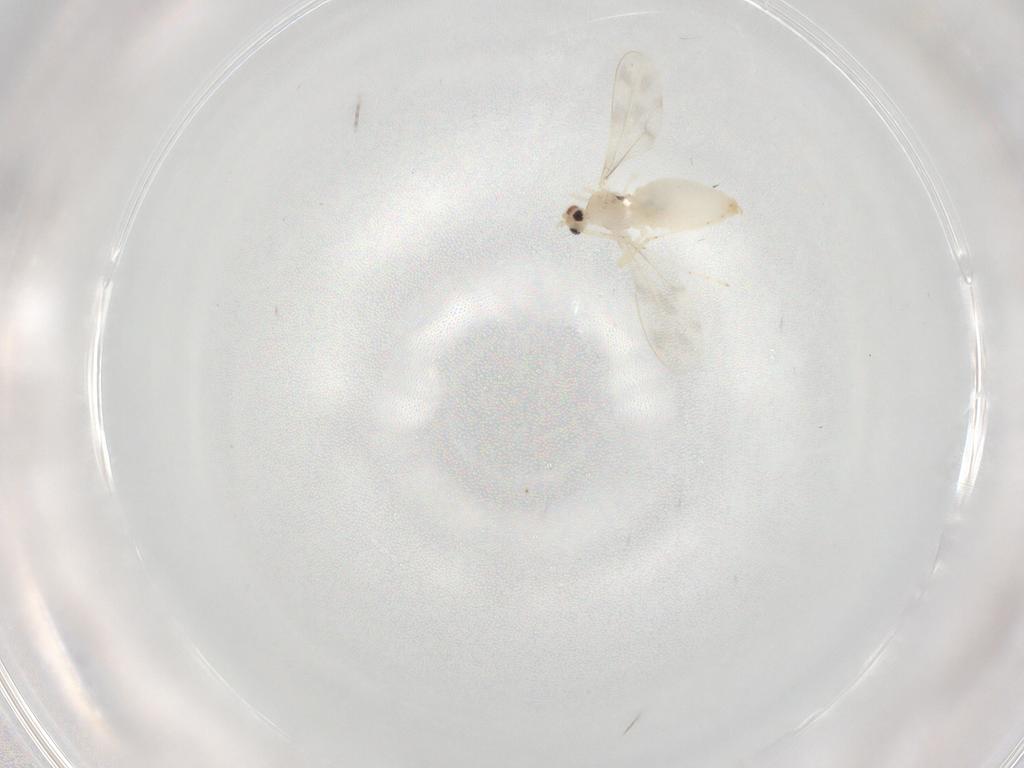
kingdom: Animalia
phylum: Arthropoda
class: Insecta
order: Diptera
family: Cecidomyiidae
